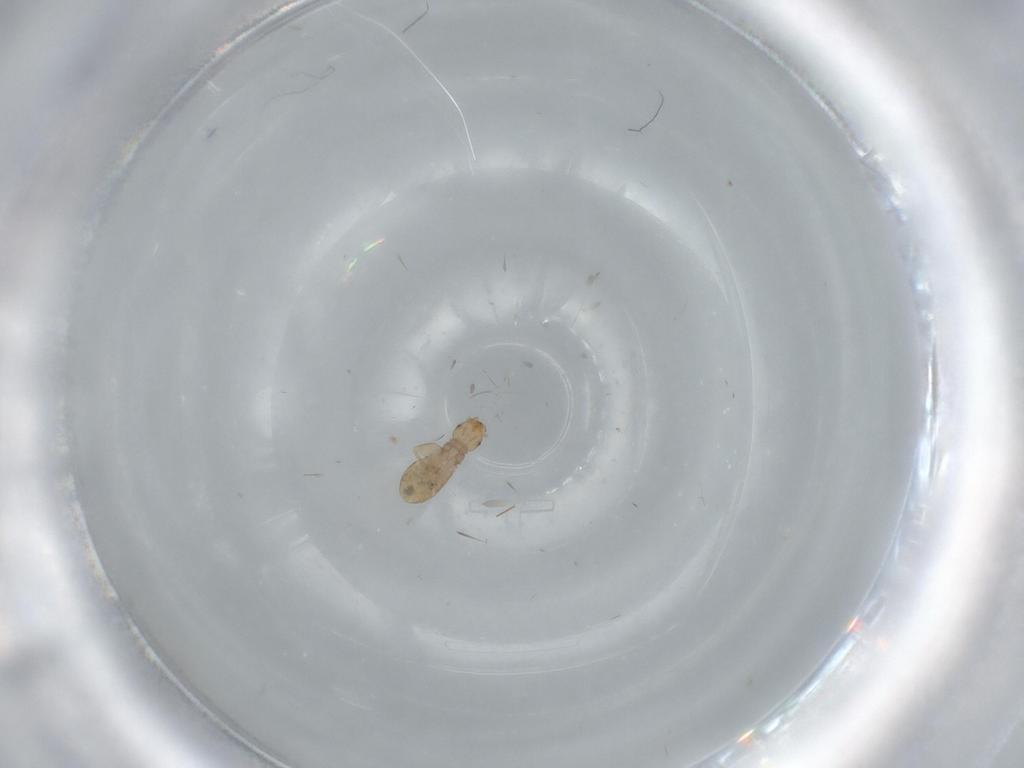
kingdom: Animalia
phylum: Arthropoda
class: Insecta
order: Psocodea
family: Liposcelididae
